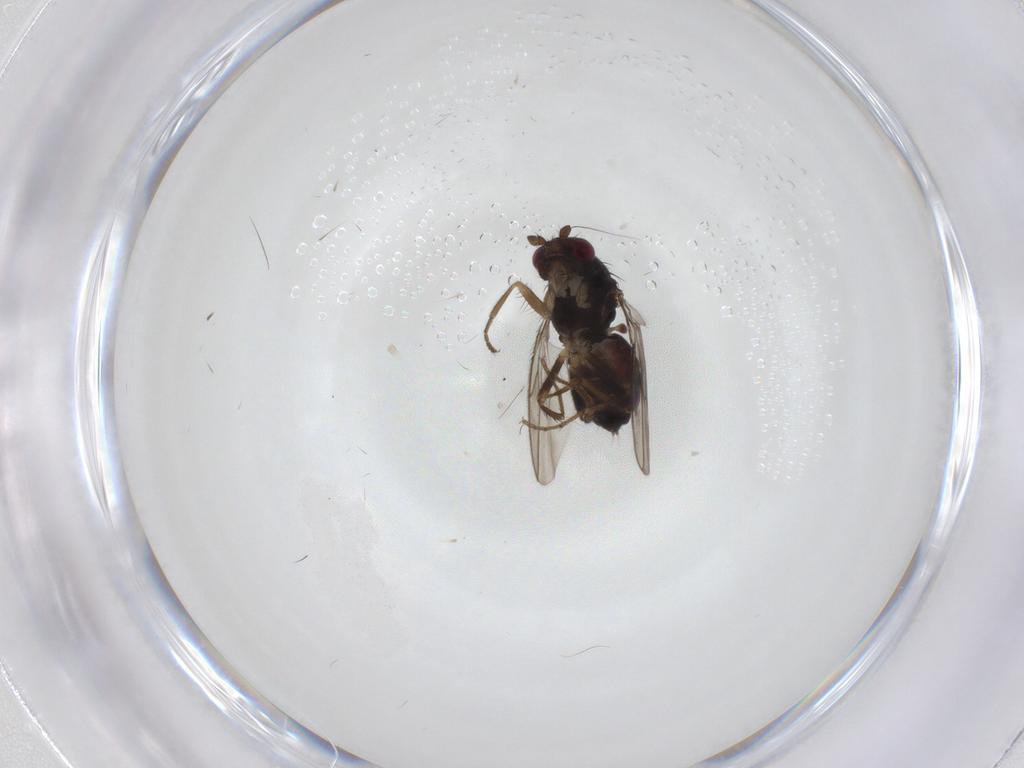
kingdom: Animalia
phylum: Arthropoda
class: Insecta
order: Diptera
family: Sphaeroceridae
